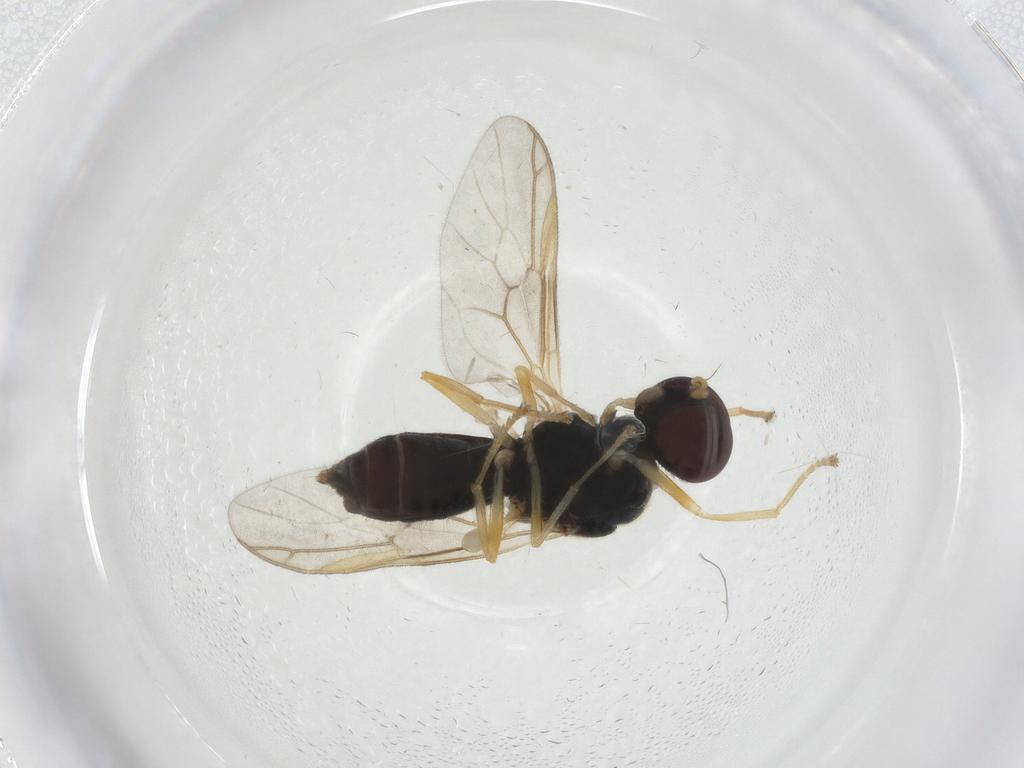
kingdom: Animalia
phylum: Arthropoda
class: Insecta
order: Diptera
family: Stratiomyidae
